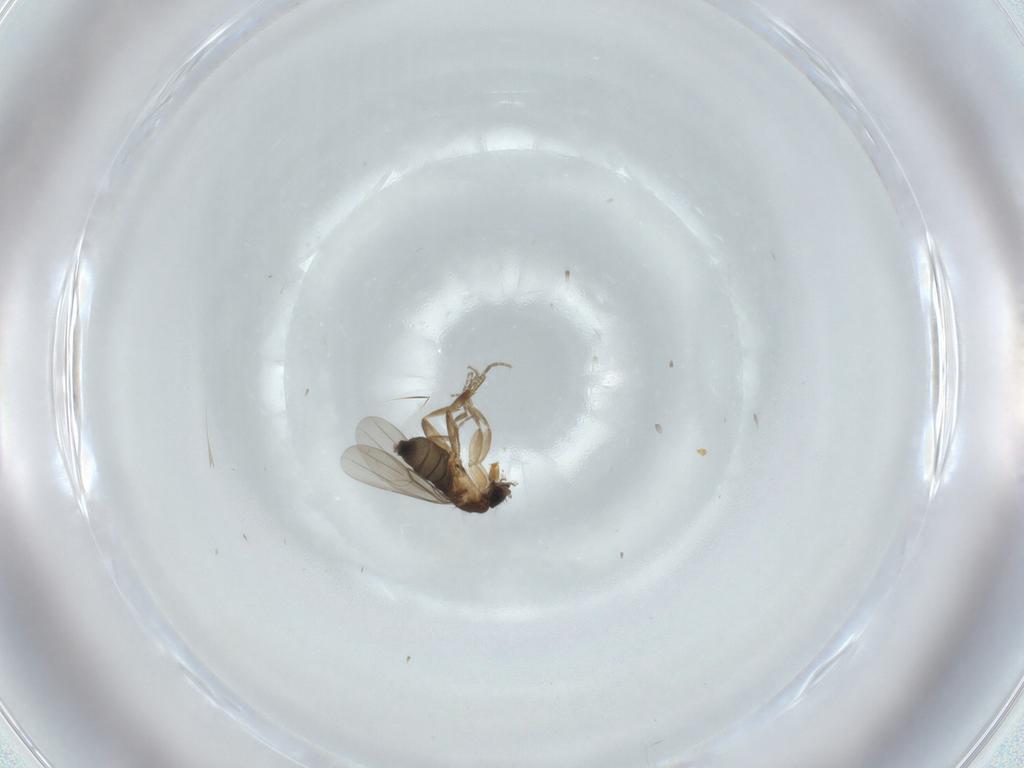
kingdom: Animalia
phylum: Arthropoda
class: Insecta
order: Diptera
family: Phoridae
